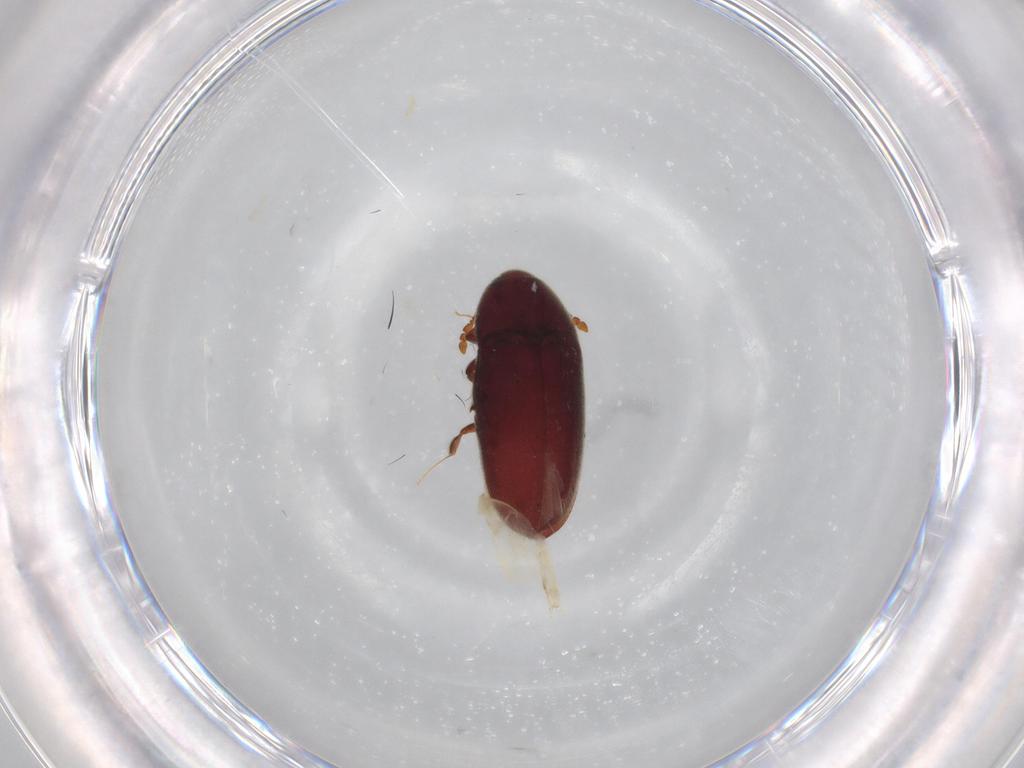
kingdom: Animalia
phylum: Arthropoda
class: Insecta
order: Coleoptera
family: Throscidae
